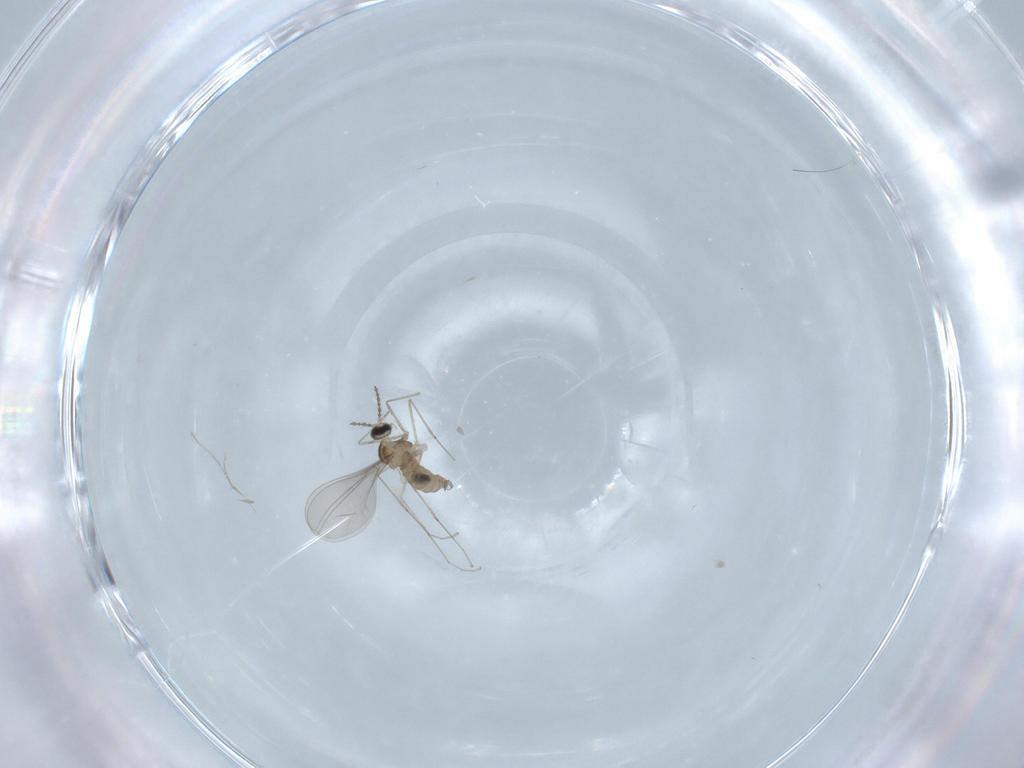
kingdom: Animalia
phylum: Arthropoda
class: Insecta
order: Diptera
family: Cecidomyiidae
